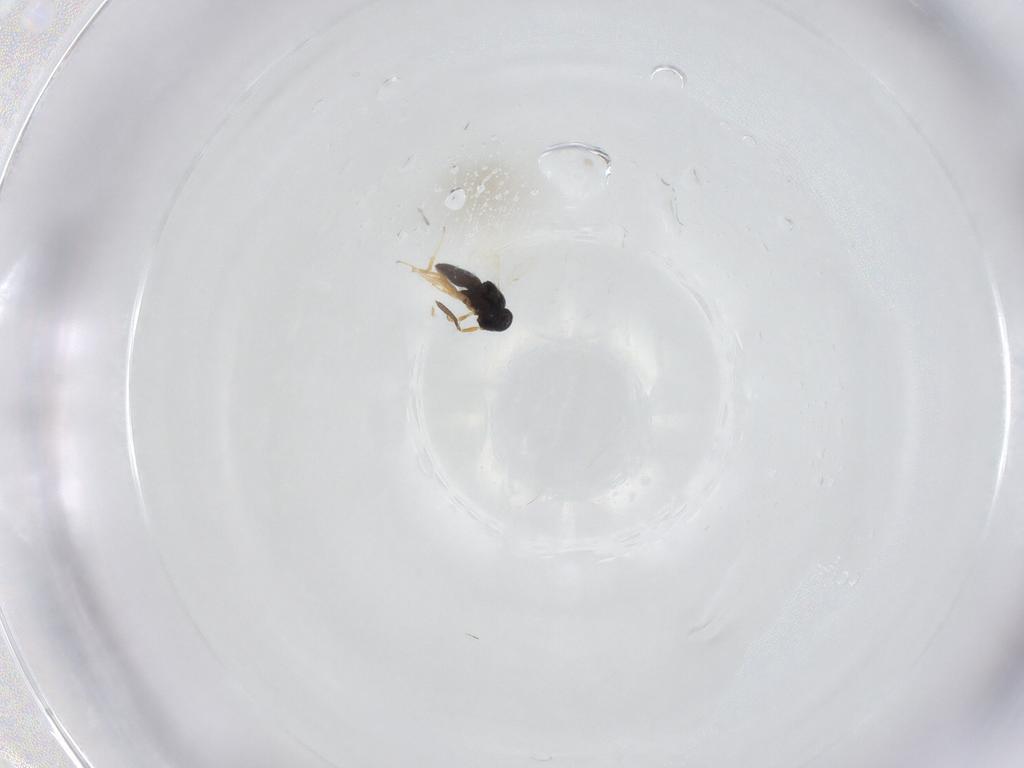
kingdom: Animalia
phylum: Arthropoda
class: Insecta
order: Hymenoptera
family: Scelionidae
